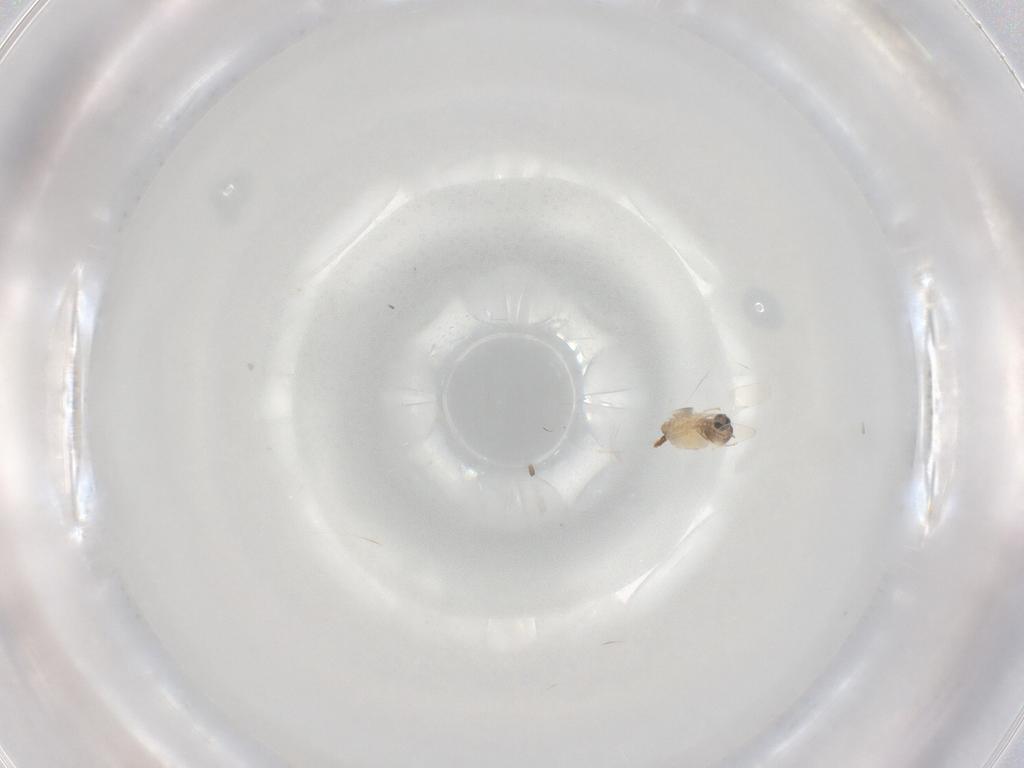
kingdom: Animalia
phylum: Arthropoda
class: Insecta
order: Diptera
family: Cecidomyiidae
